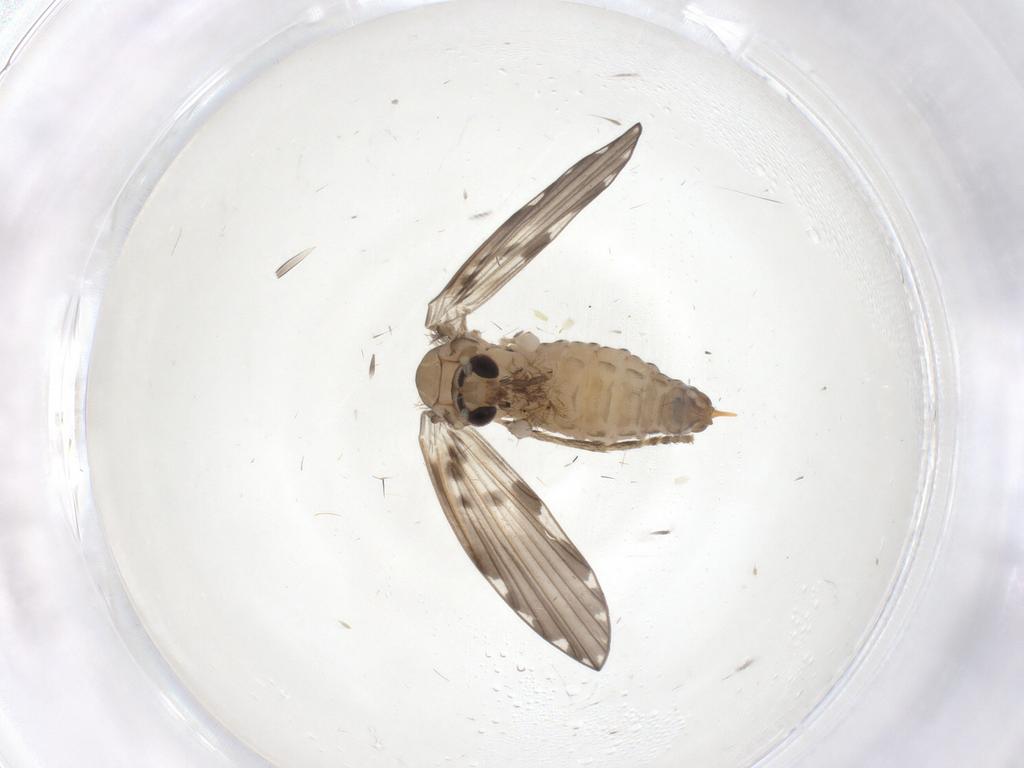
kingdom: Animalia
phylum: Arthropoda
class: Insecta
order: Diptera
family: Psychodidae
